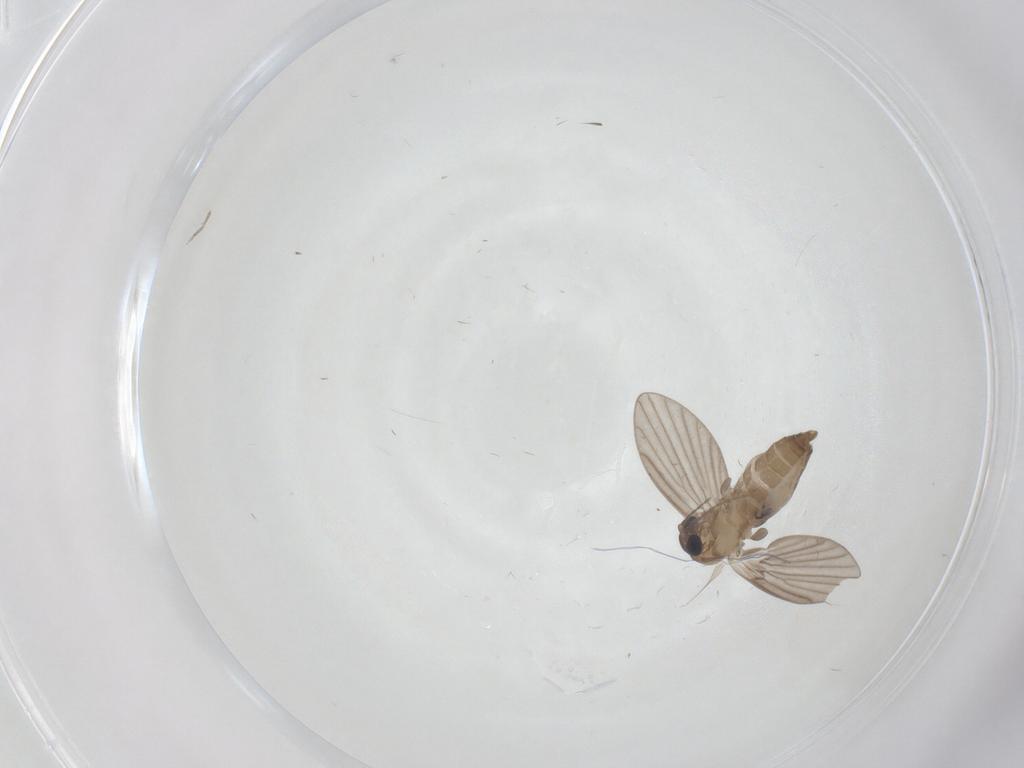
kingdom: Animalia
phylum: Arthropoda
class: Insecta
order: Diptera
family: Cecidomyiidae
